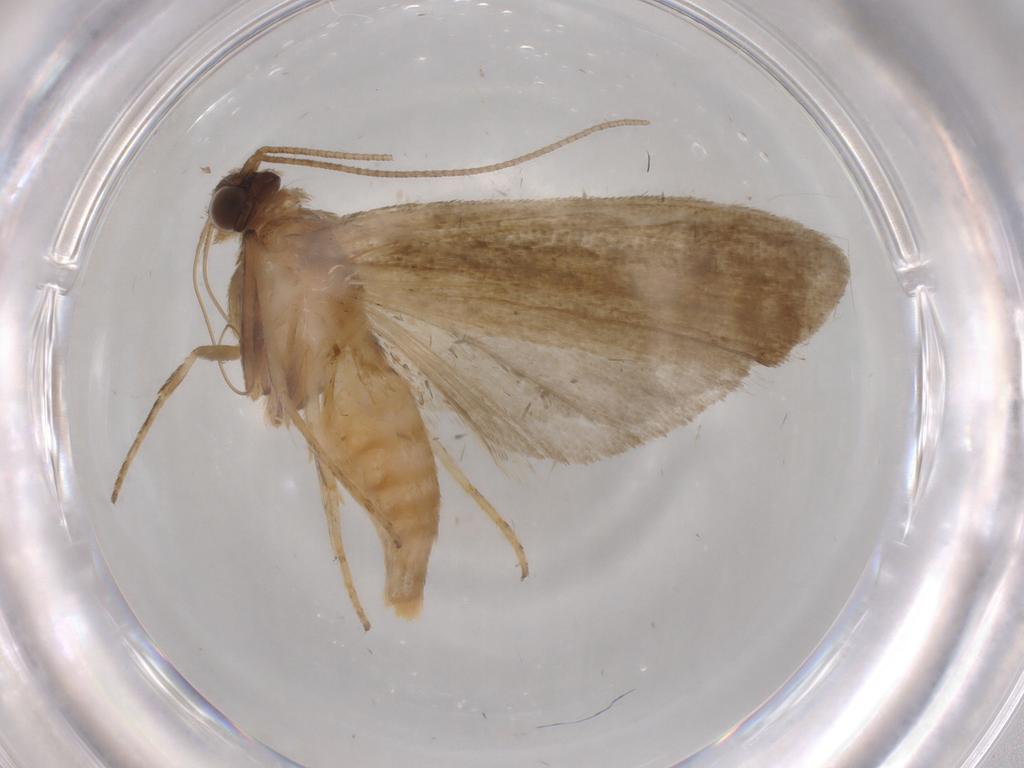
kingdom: Animalia
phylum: Arthropoda
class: Insecta
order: Lepidoptera
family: Noctuidae
